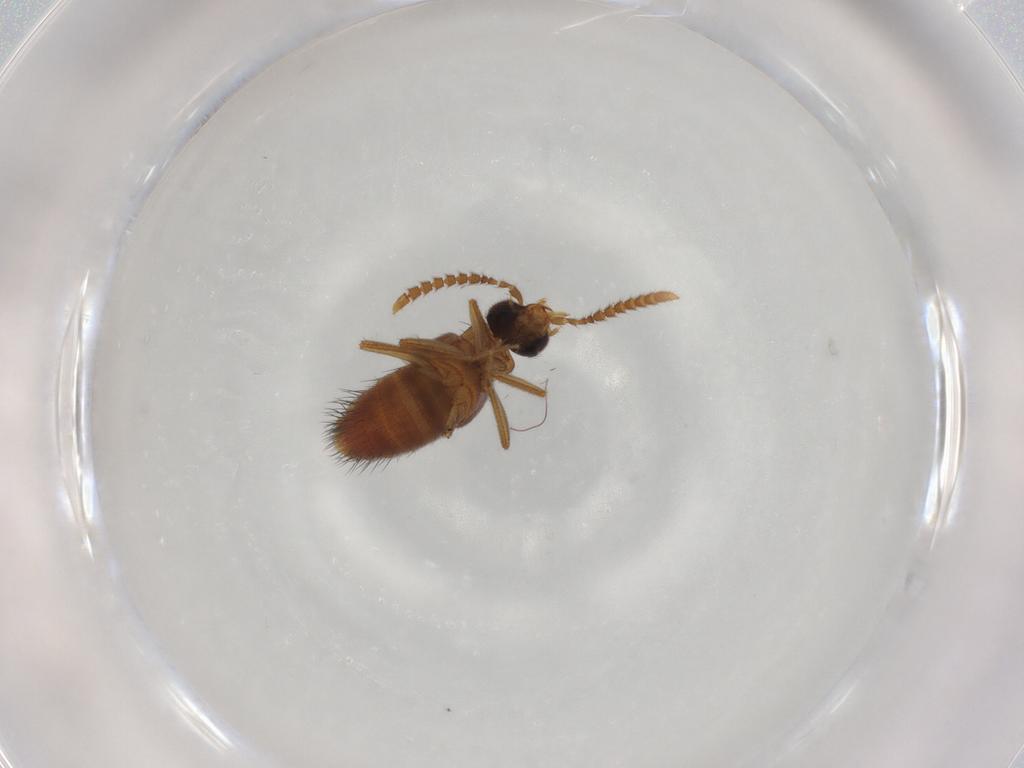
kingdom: Animalia
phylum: Arthropoda
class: Insecta
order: Coleoptera
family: Staphylinidae
